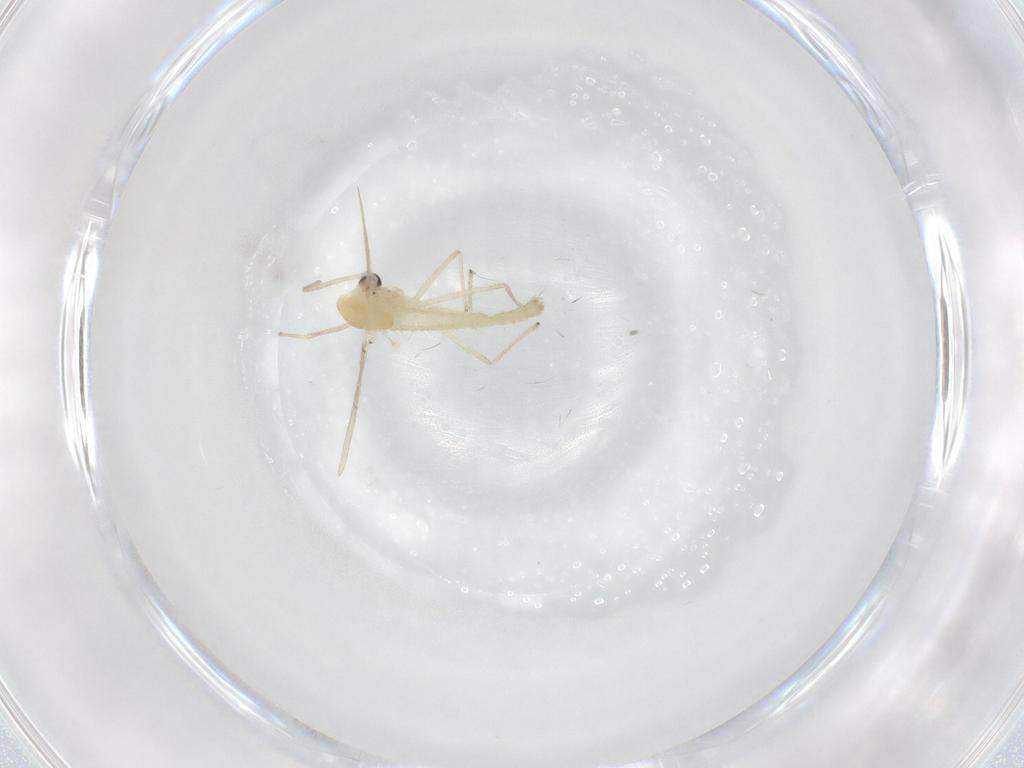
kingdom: Animalia
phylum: Arthropoda
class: Insecta
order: Diptera
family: Chironomidae
